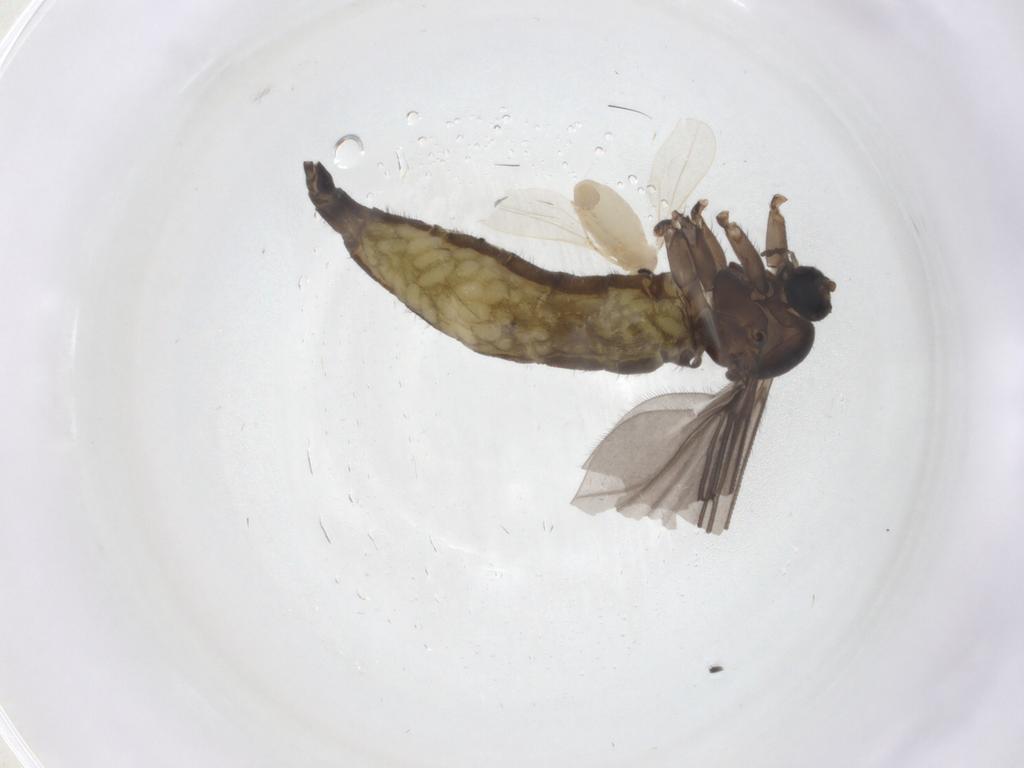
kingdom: Animalia
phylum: Arthropoda
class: Insecta
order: Diptera
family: Sciaridae
